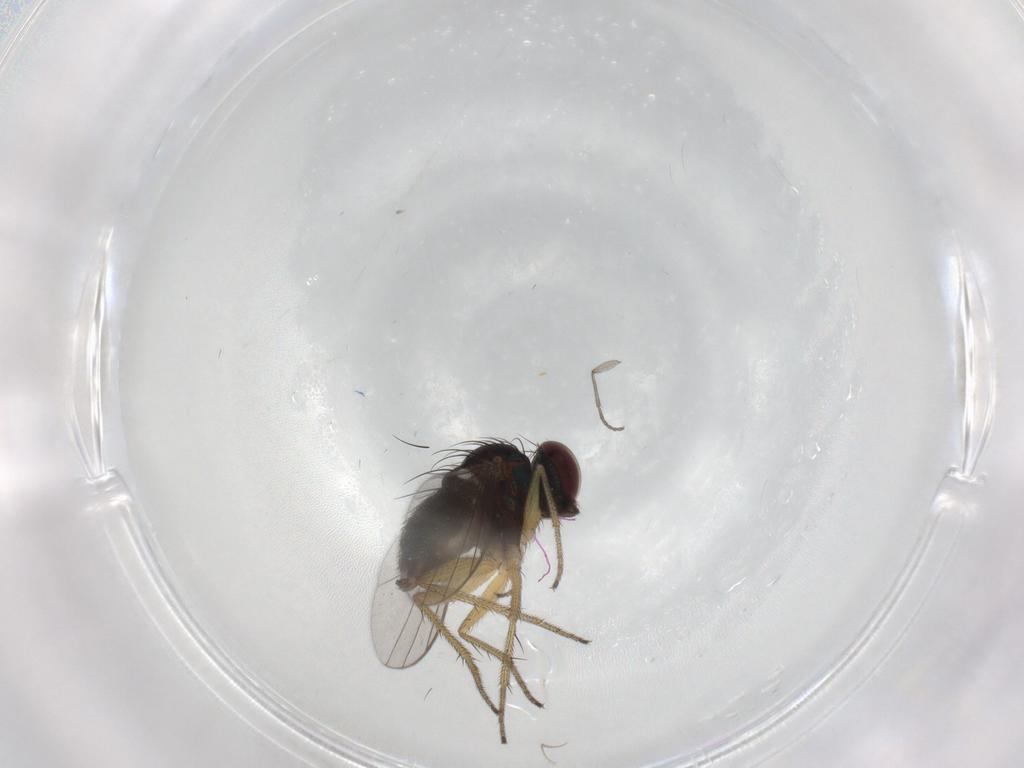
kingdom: Animalia
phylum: Arthropoda
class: Insecta
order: Diptera
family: Sciaridae
